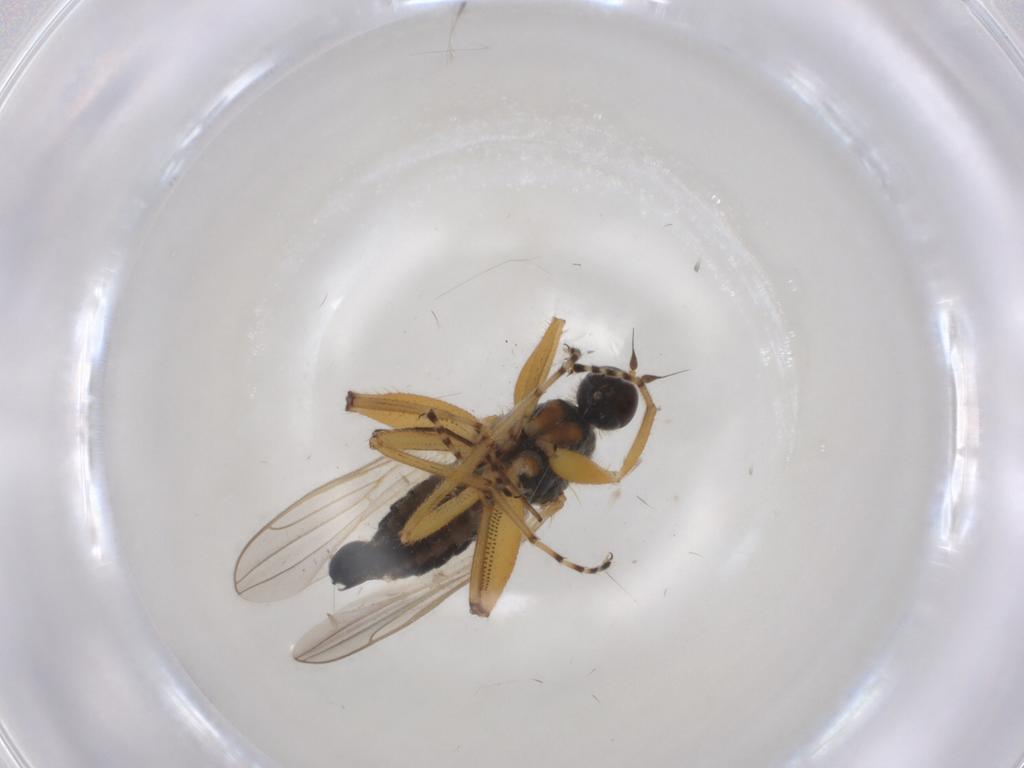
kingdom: Animalia
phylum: Arthropoda
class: Insecta
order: Diptera
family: Hybotidae
